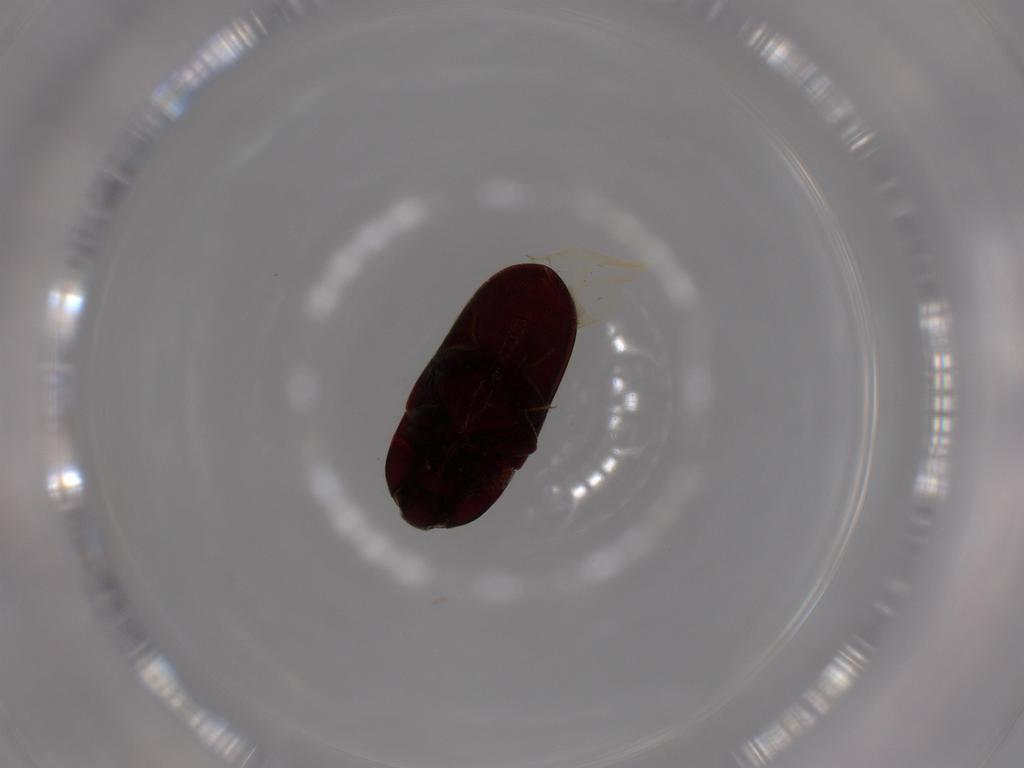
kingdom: Animalia
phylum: Arthropoda
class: Insecta
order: Coleoptera
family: Throscidae
